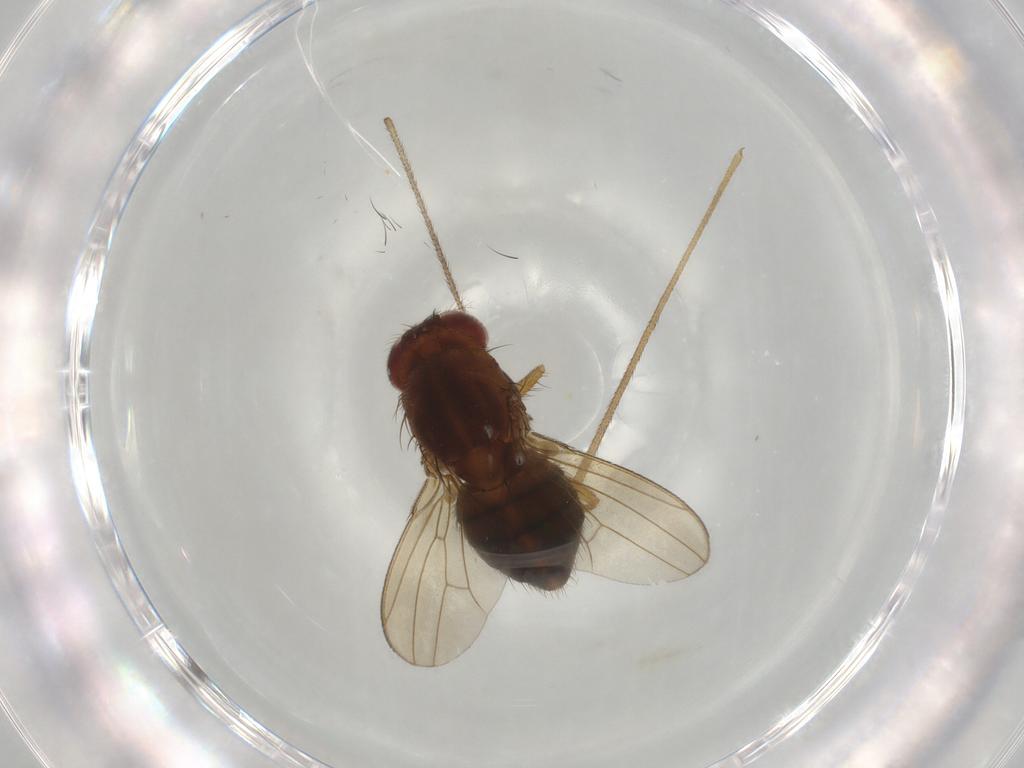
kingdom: Animalia
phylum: Arthropoda
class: Insecta
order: Diptera
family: Drosophilidae
